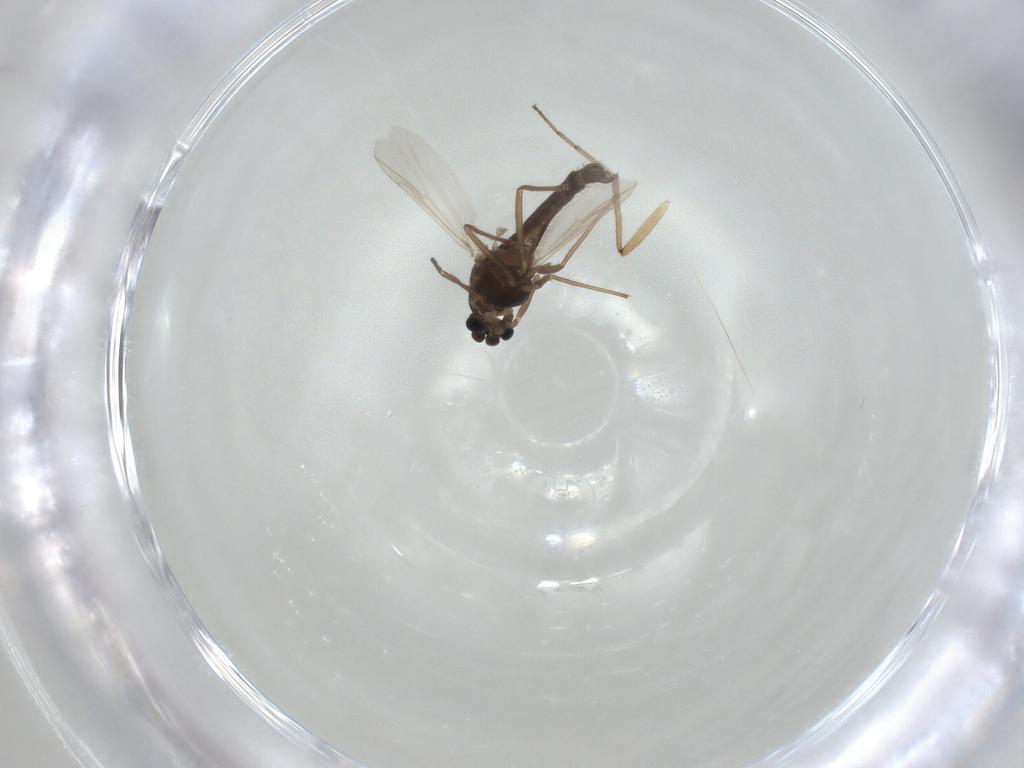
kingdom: Animalia
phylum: Arthropoda
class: Insecta
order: Diptera
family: Chironomidae
